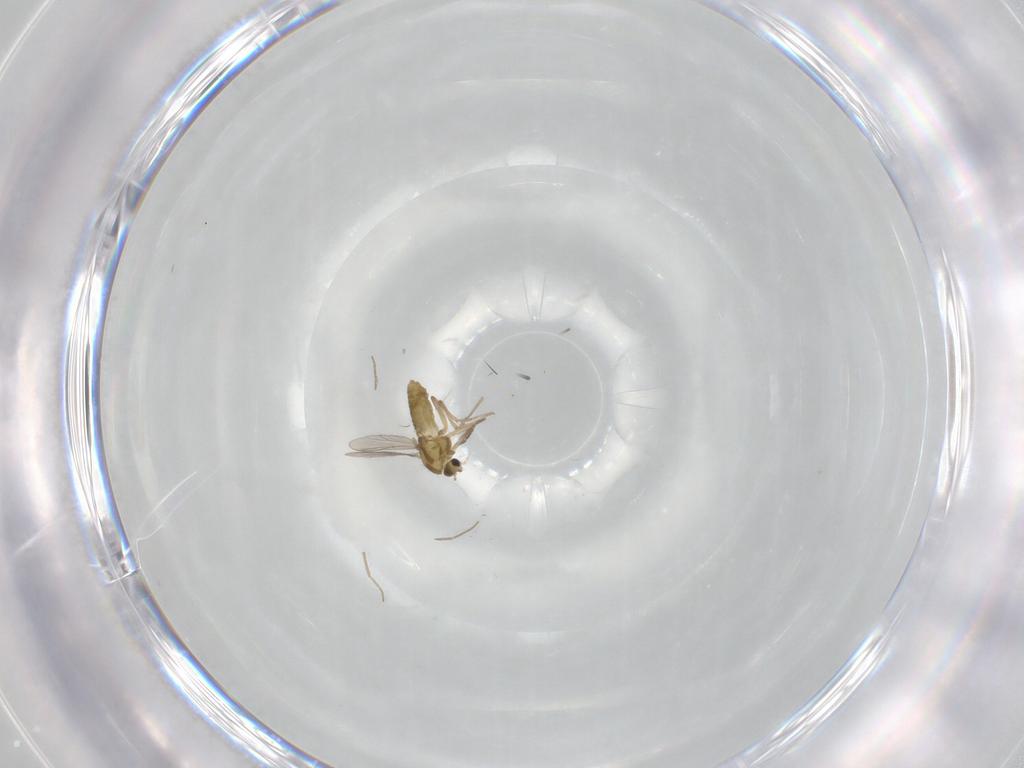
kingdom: Animalia
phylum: Arthropoda
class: Insecta
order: Diptera
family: Chironomidae
